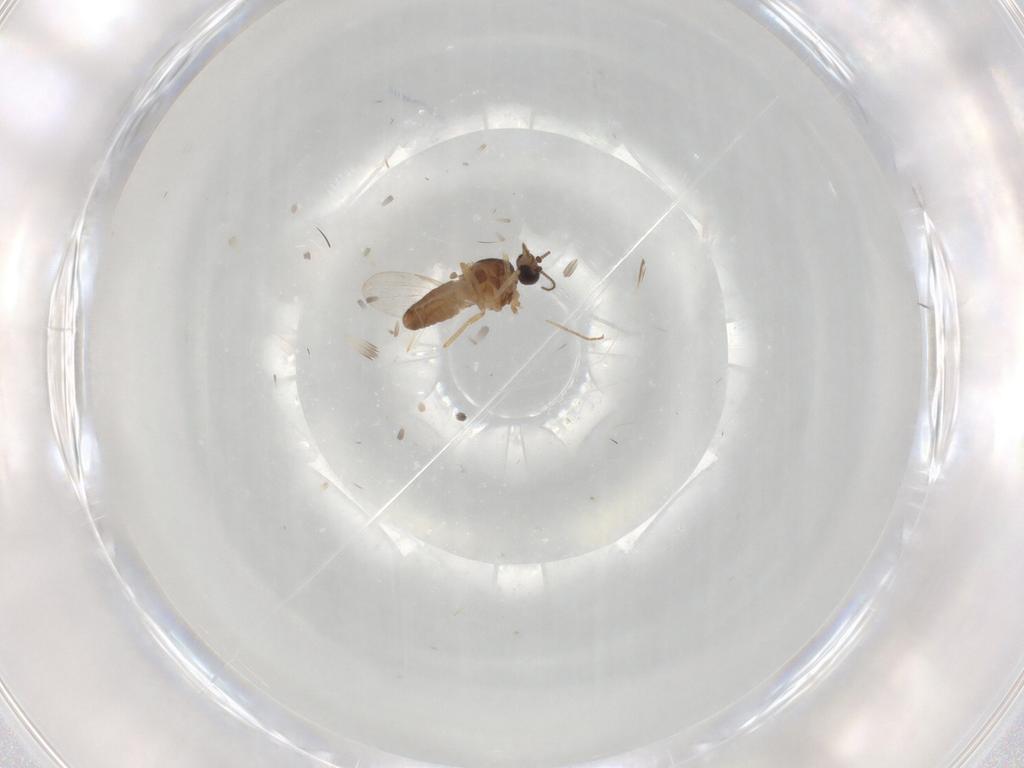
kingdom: Animalia
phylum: Arthropoda
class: Insecta
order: Diptera
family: Ceratopogonidae
